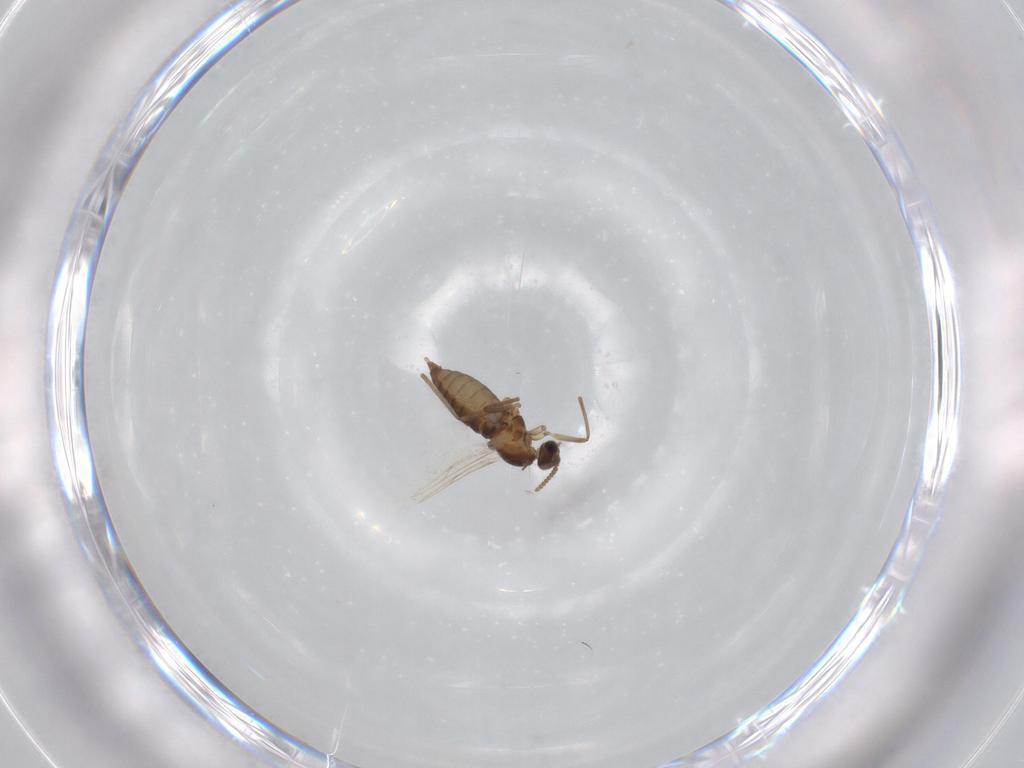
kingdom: Animalia
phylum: Arthropoda
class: Insecta
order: Diptera
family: Cecidomyiidae
